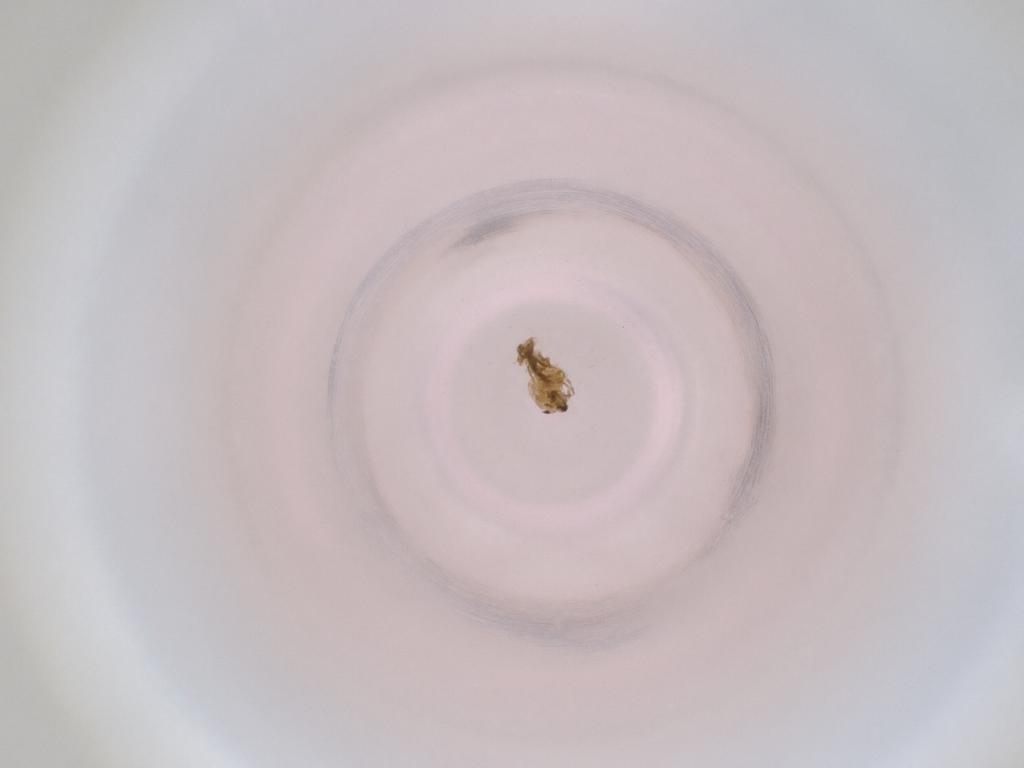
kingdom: Animalia
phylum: Arthropoda
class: Insecta
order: Diptera
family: Cecidomyiidae
